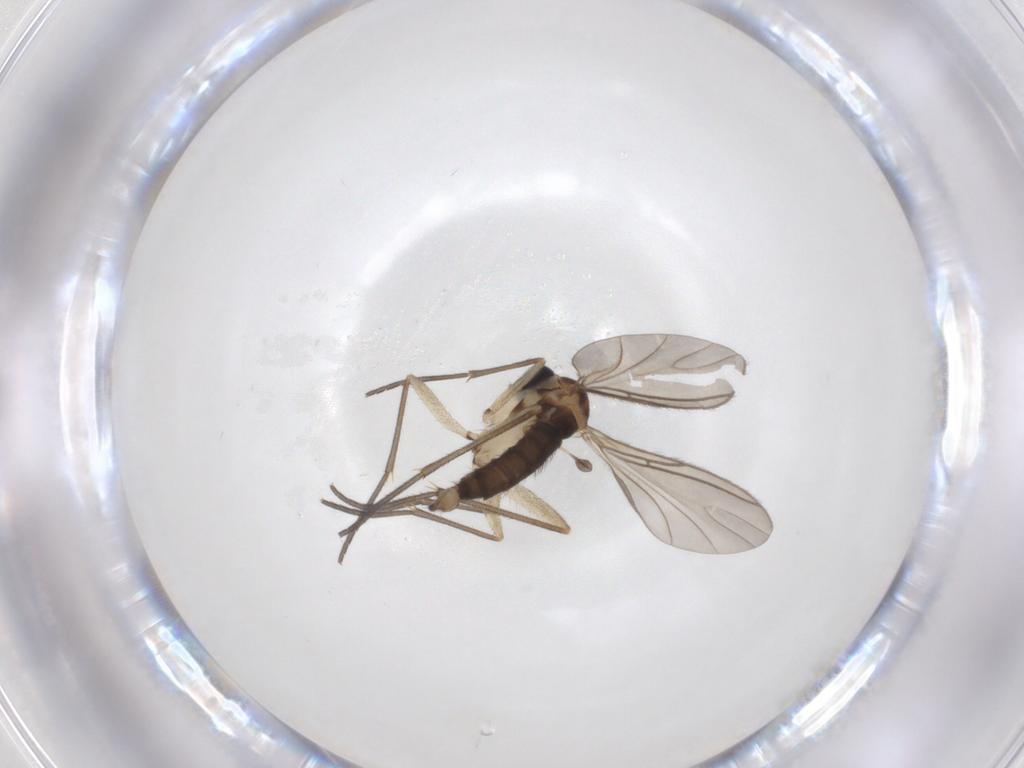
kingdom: Animalia
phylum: Arthropoda
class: Insecta
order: Diptera
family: Sciaridae
